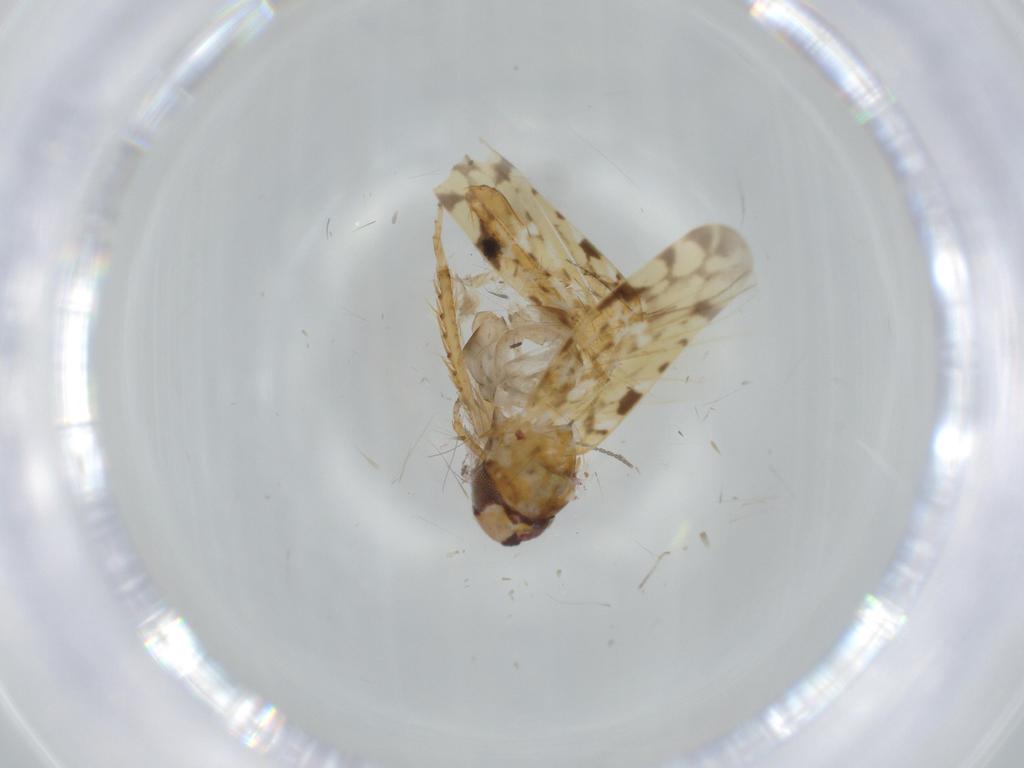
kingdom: Animalia
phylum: Arthropoda
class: Insecta
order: Hemiptera
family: Cicadellidae
